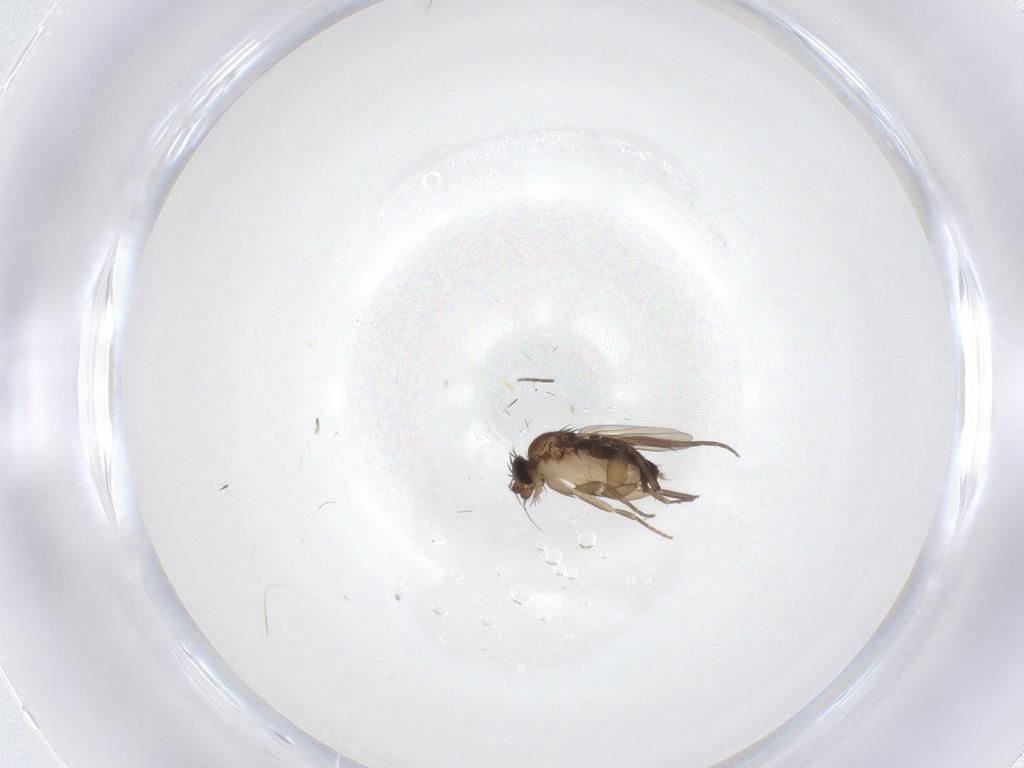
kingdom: Animalia
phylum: Arthropoda
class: Insecta
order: Diptera
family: Phoridae
